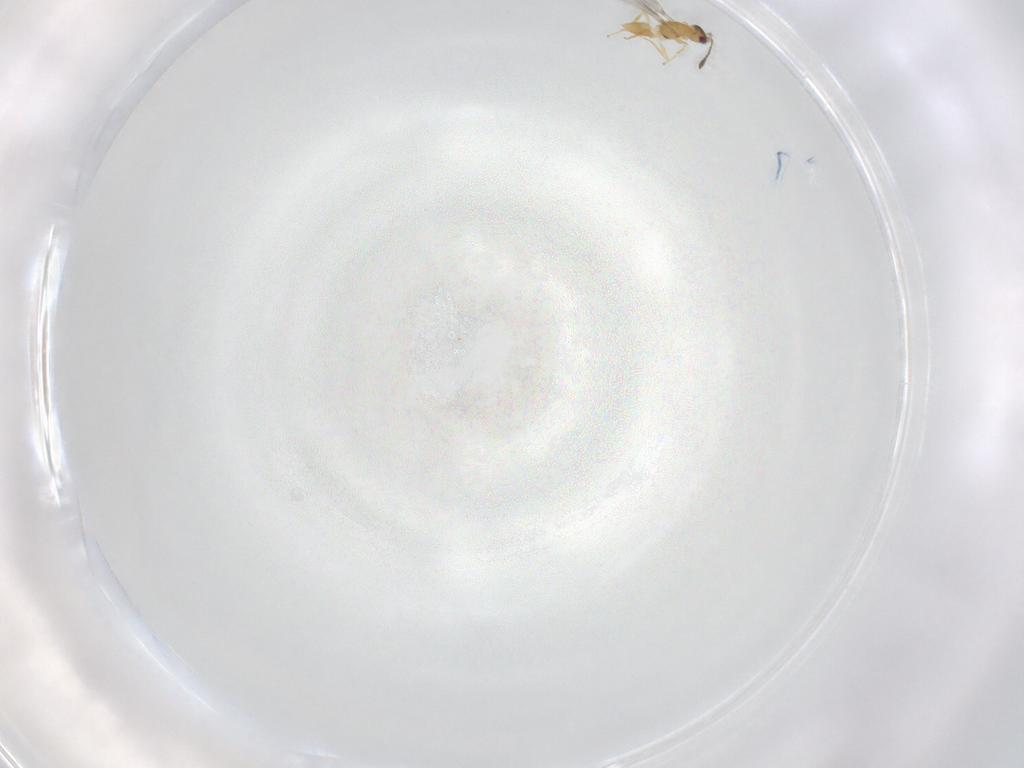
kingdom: Animalia
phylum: Arthropoda
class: Insecta
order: Hymenoptera
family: Mymaridae
